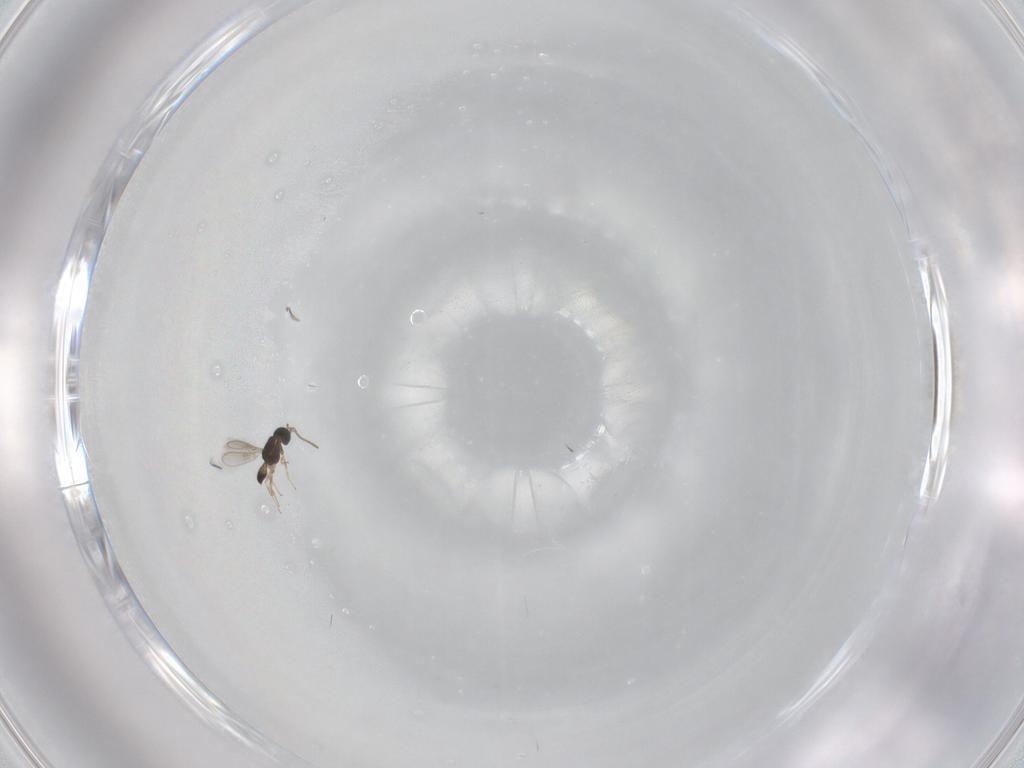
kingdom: Animalia
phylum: Arthropoda
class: Insecta
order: Hymenoptera
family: Scelionidae
